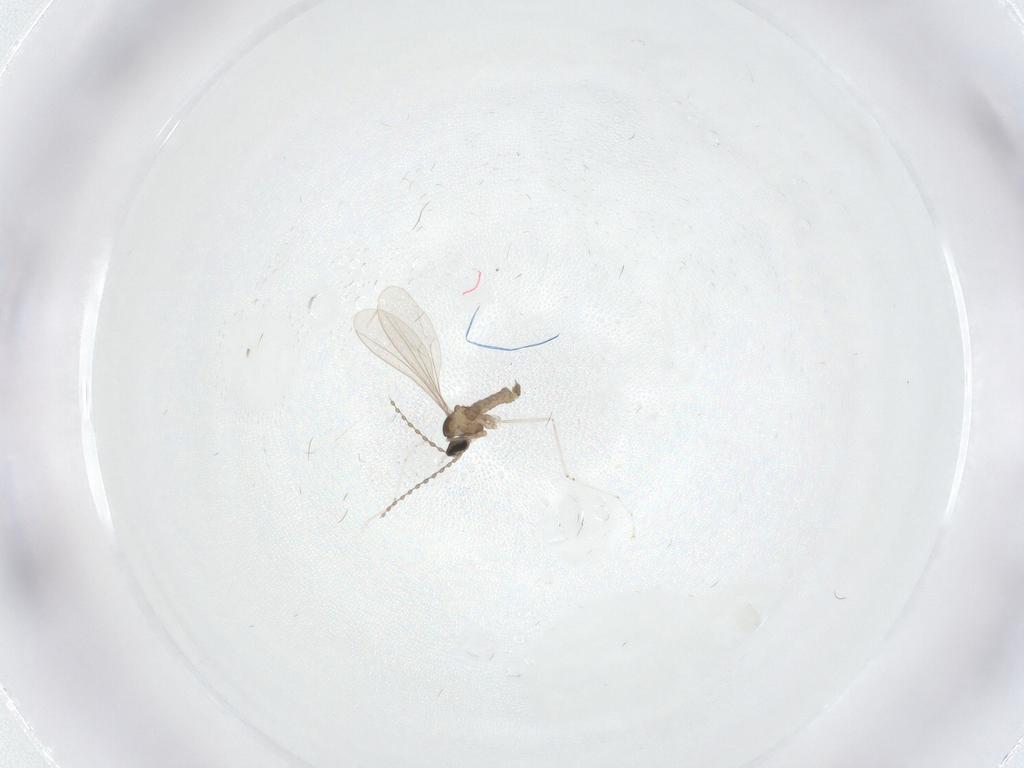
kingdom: Animalia
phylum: Arthropoda
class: Insecta
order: Diptera
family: Cecidomyiidae
